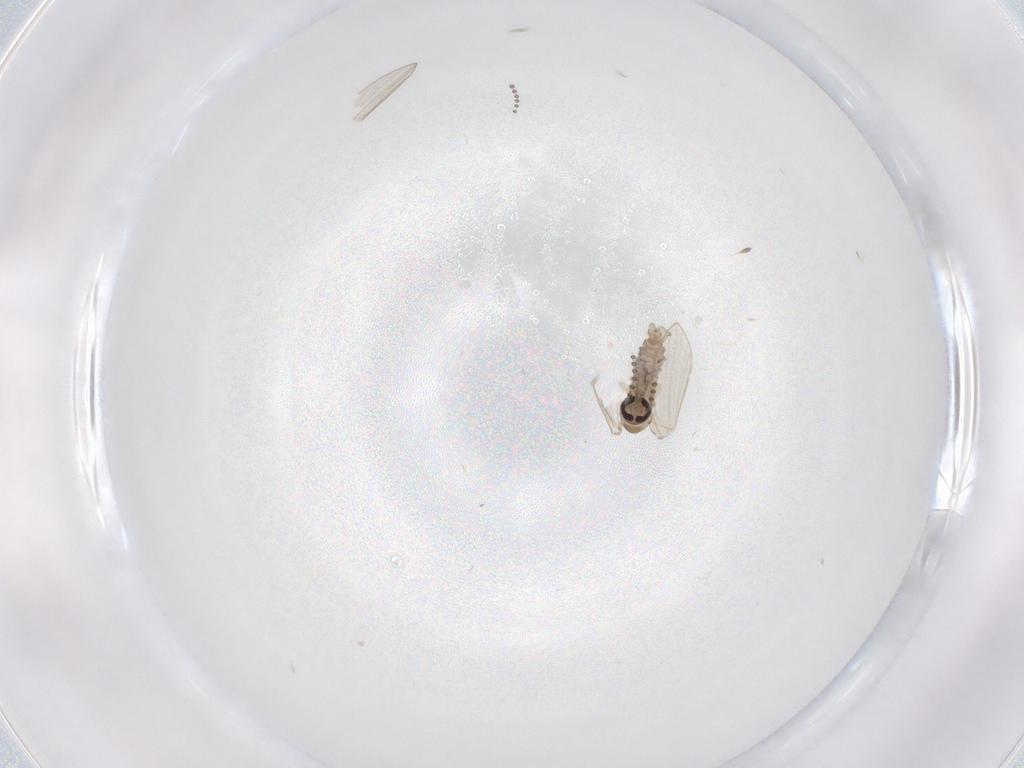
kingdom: Animalia
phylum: Arthropoda
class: Insecta
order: Diptera
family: Psychodidae
